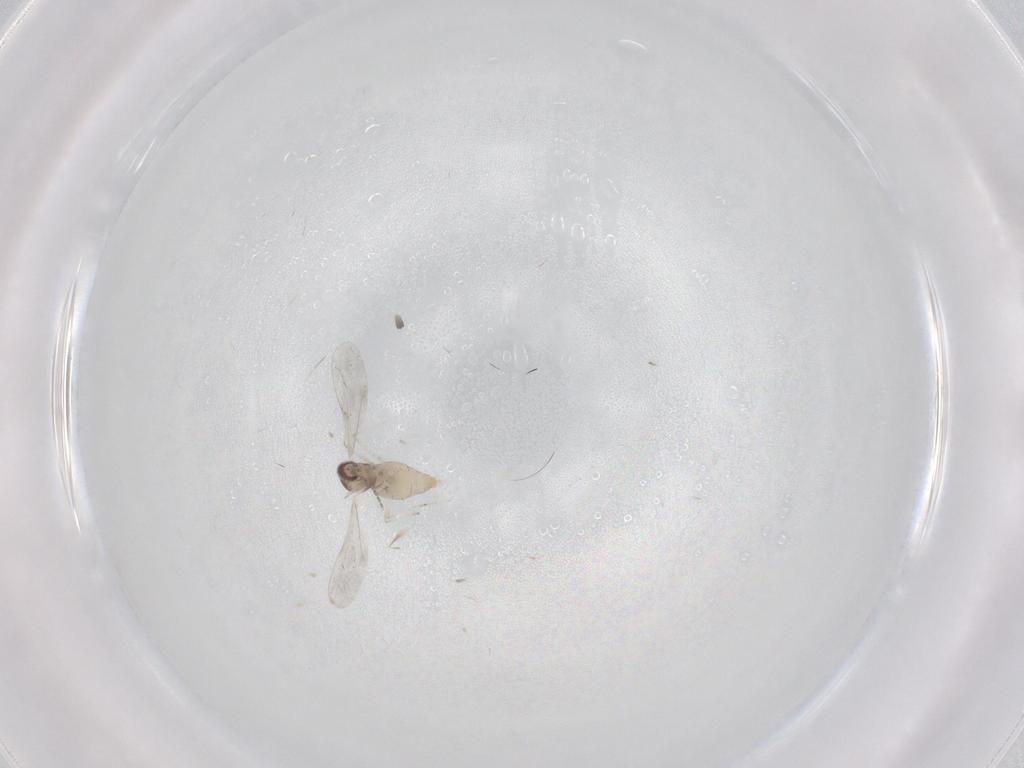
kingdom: Animalia
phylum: Arthropoda
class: Insecta
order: Diptera
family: Cecidomyiidae
